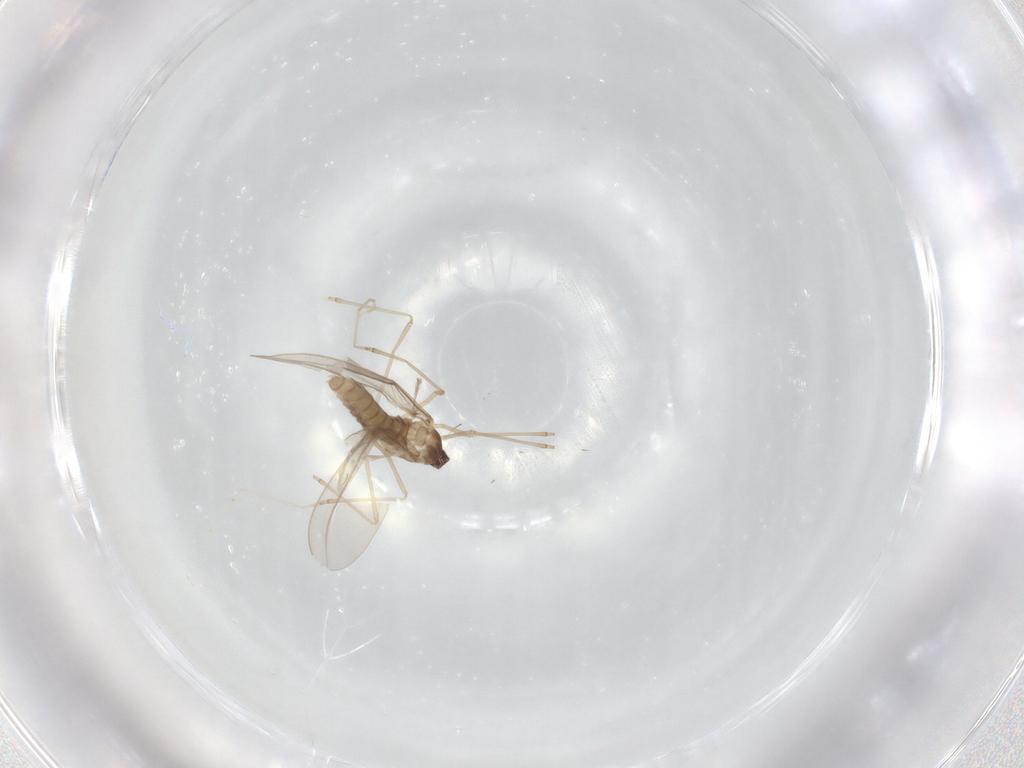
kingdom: Animalia
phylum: Arthropoda
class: Insecta
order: Diptera
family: Cecidomyiidae
